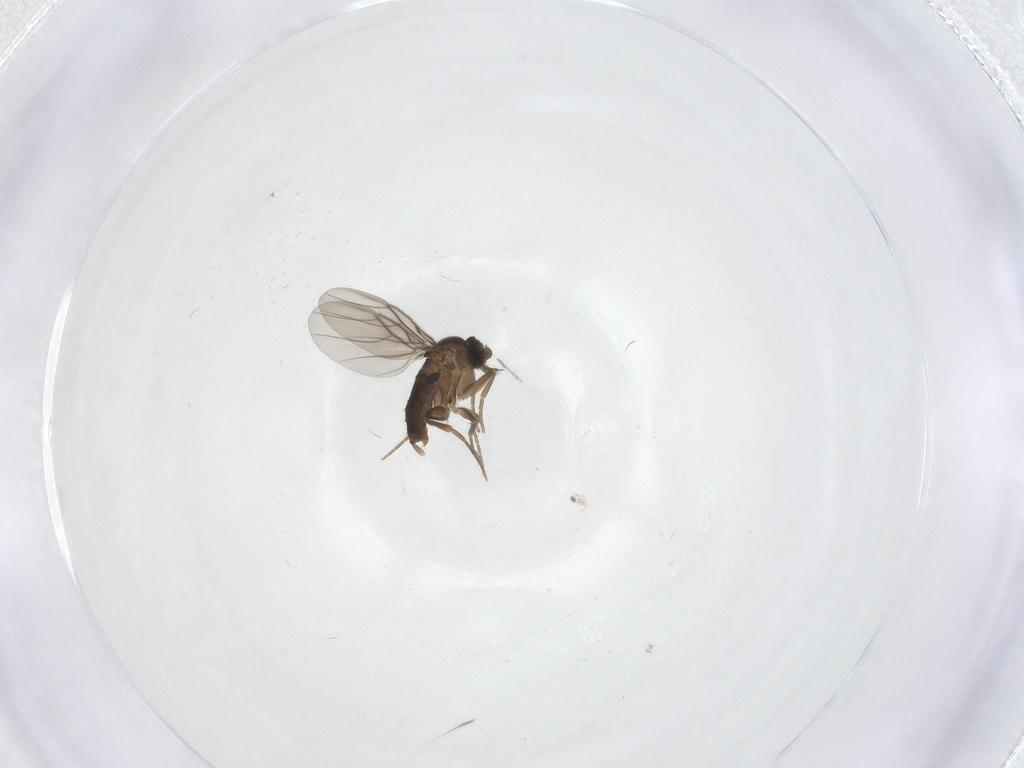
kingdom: Animalia
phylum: Arthropoda
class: Insecta
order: Diptera
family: Phoridae
